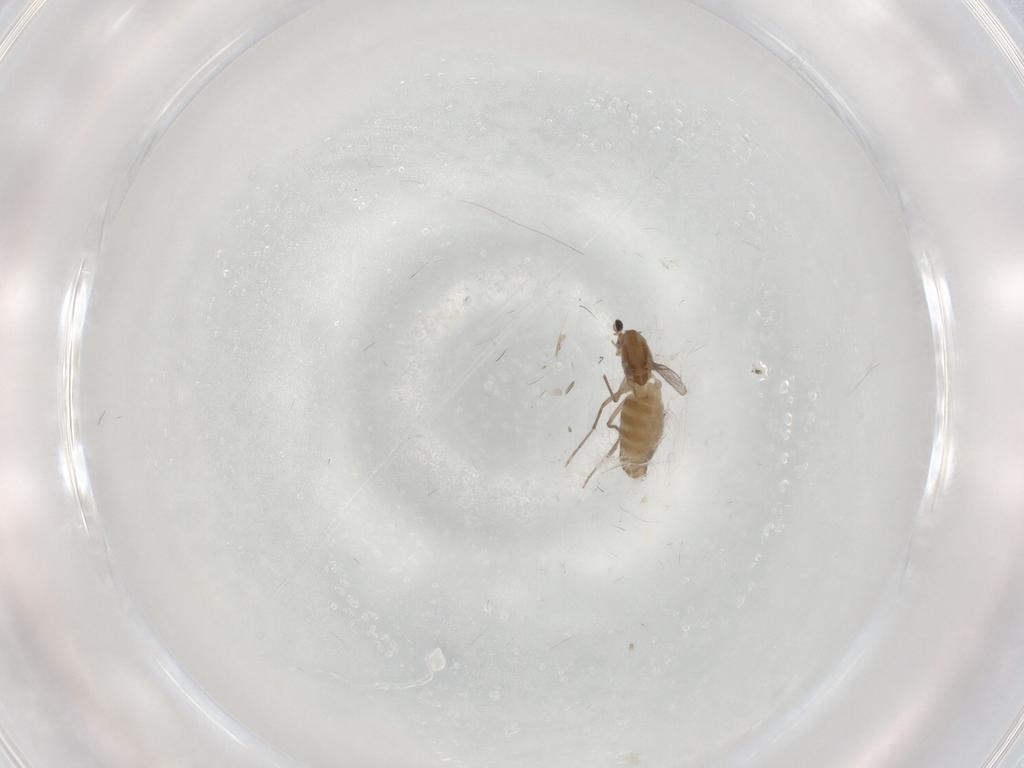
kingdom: Animalia
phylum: Arthropoda
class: Insecta
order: Diptera
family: Chironomidae
